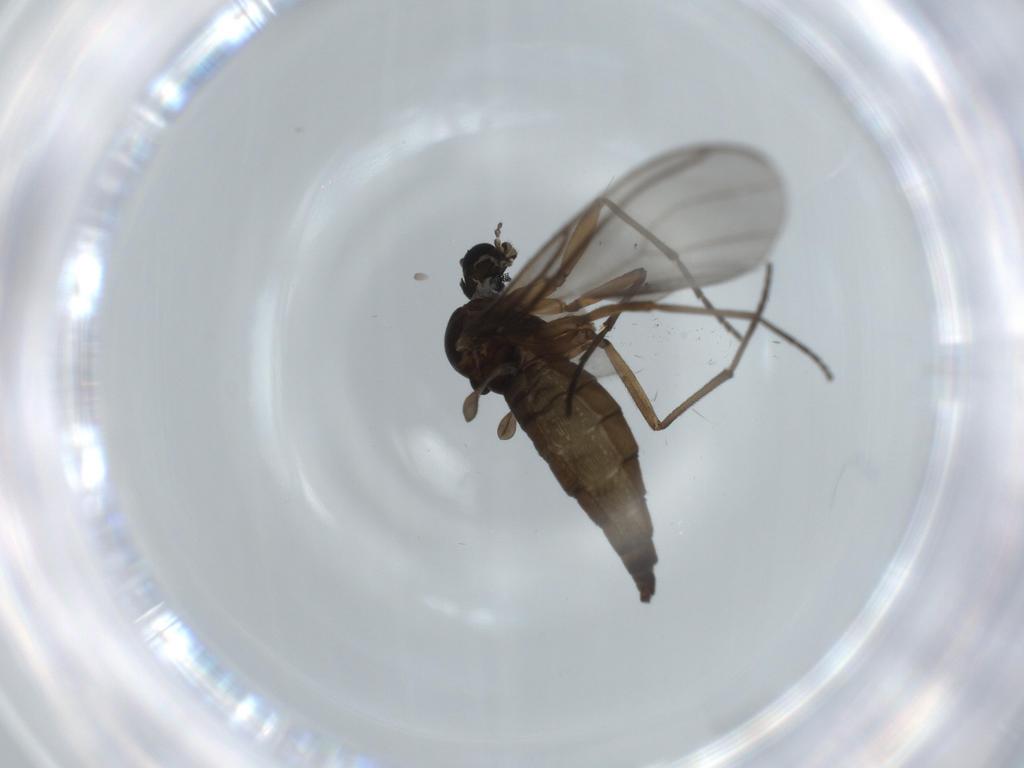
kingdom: Animalia
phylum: Arthropoda
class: Insecta
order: Diptera
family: Sciaridae
